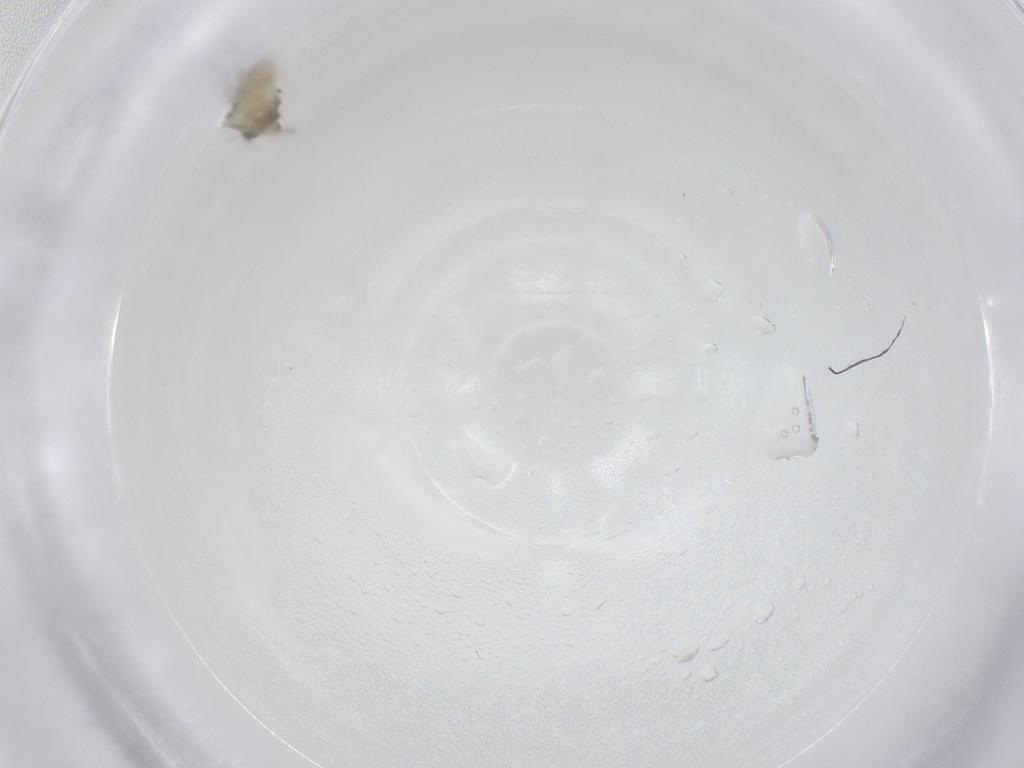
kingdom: Animalia
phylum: Arthropoda
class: Insecta
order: Diptera
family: Chironomidae
